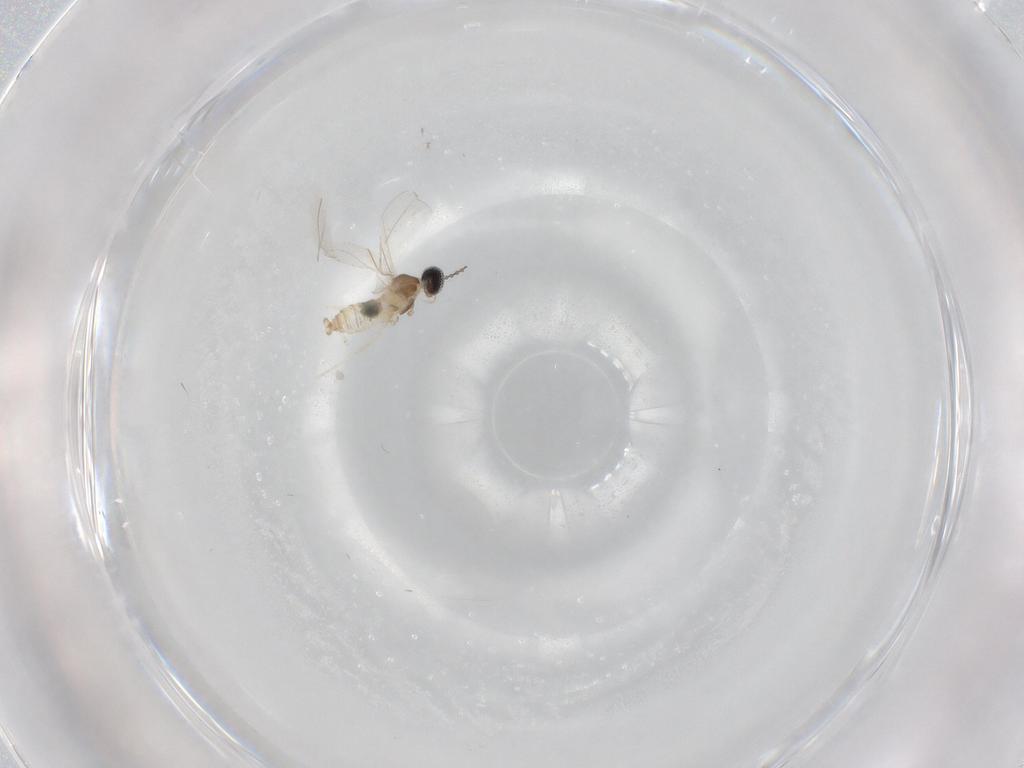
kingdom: Animalia
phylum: Arthropoda
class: Insecta
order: Diptera
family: Cecidomyiidae
